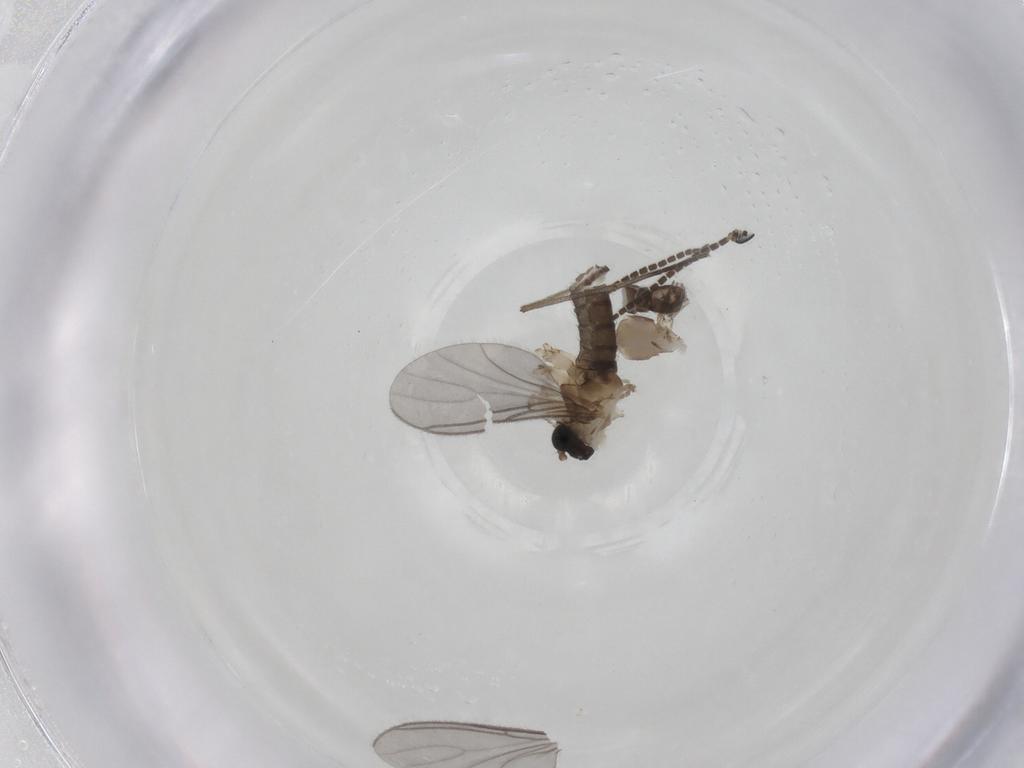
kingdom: Animalia
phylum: Arthropoda
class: Insecta
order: Diptera
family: Sciaridae
